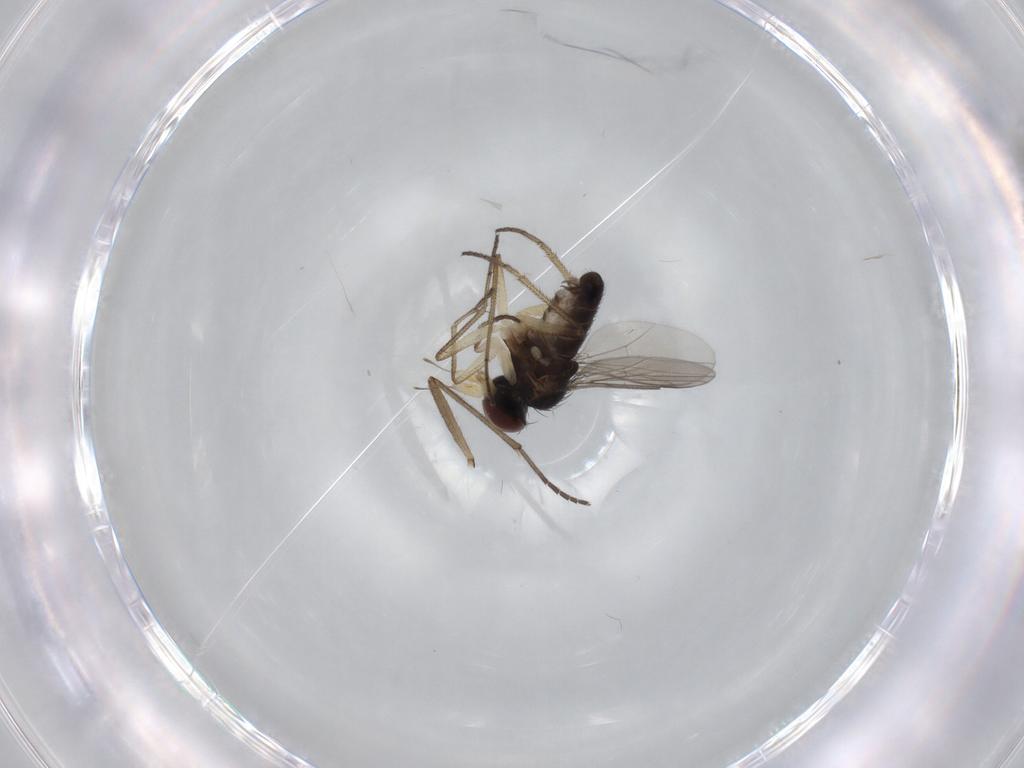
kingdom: Animalia
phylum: Arthropoda
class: Insecta
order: Diptera
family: Dolichopodidae
